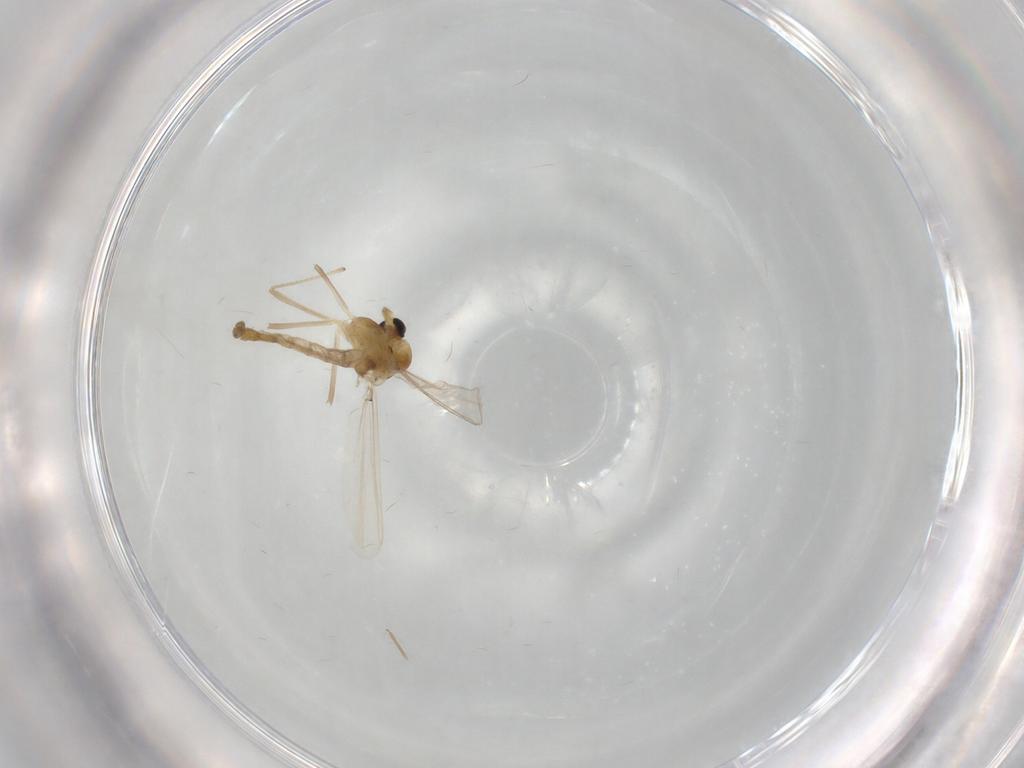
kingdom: Animalia
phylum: Arthropoda
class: Insecta
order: Diptera
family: Chironomidae
